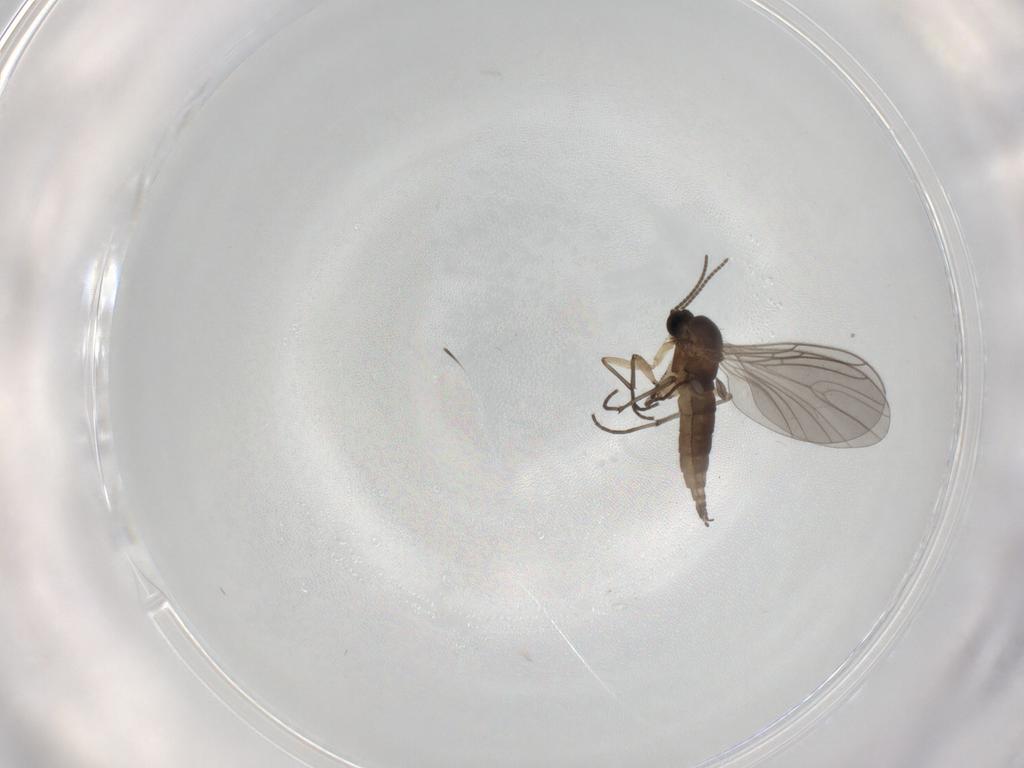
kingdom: Animalia
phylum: Arthropoda
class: Insecta
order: Diptera
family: Sciaridae
